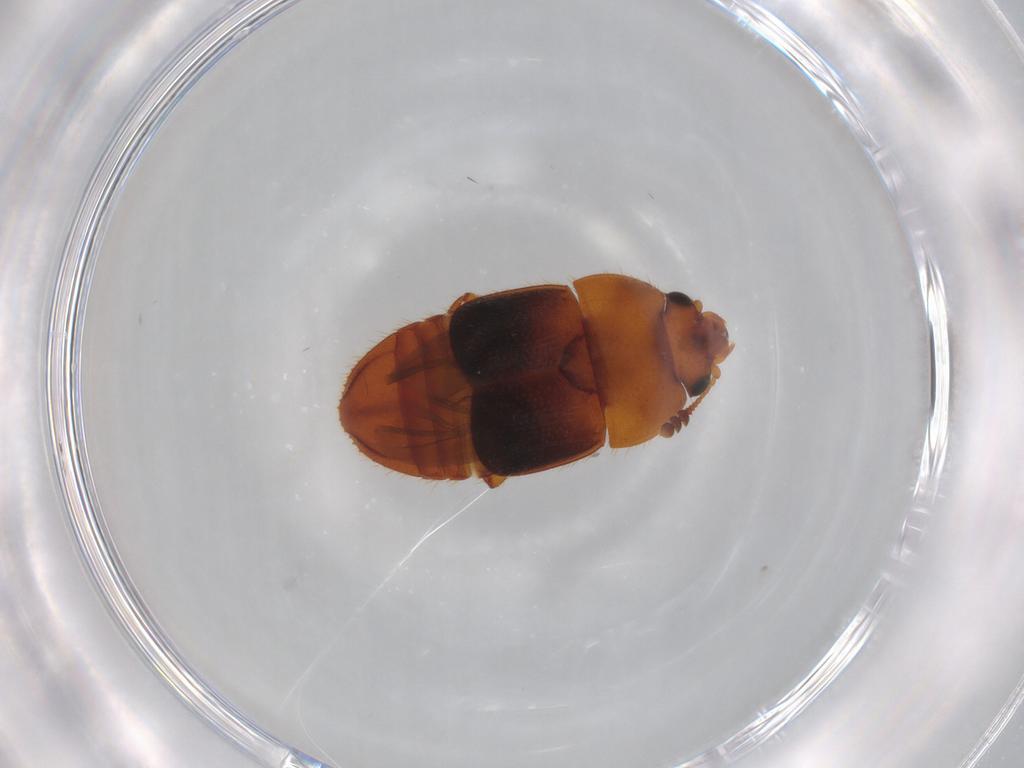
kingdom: Animalia
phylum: Arthropoda
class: Insecta
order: Coleoptera
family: Nitidulidae
